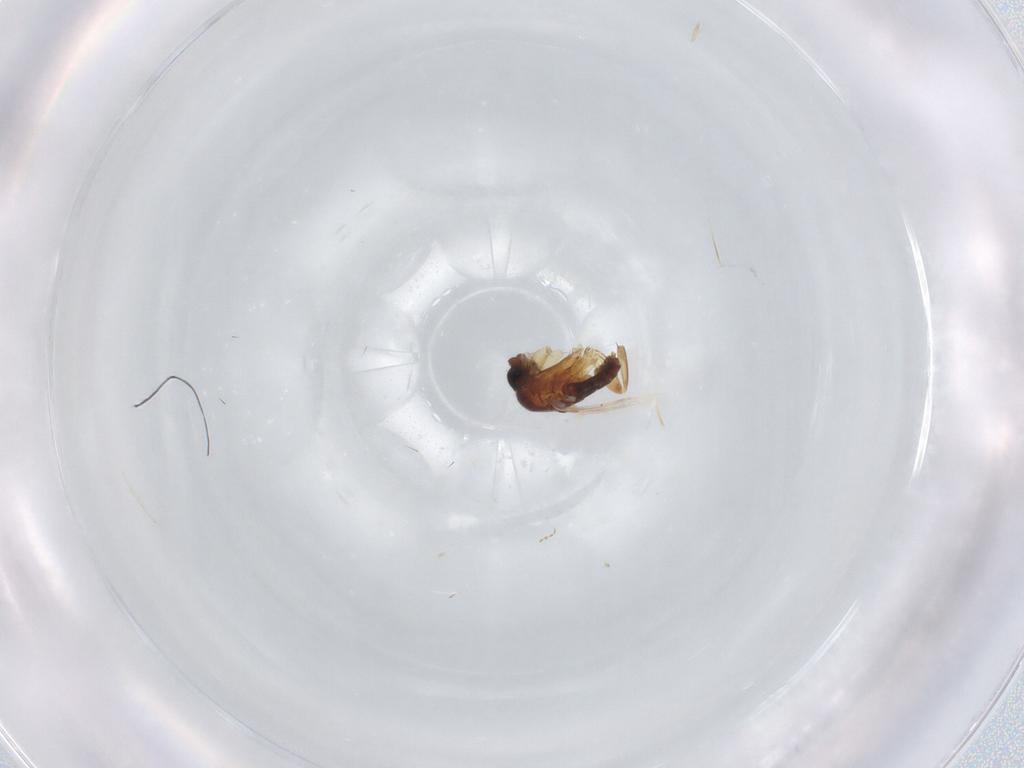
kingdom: Animalia
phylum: Arthropoda
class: Insecta
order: Diptera
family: Phoridae
